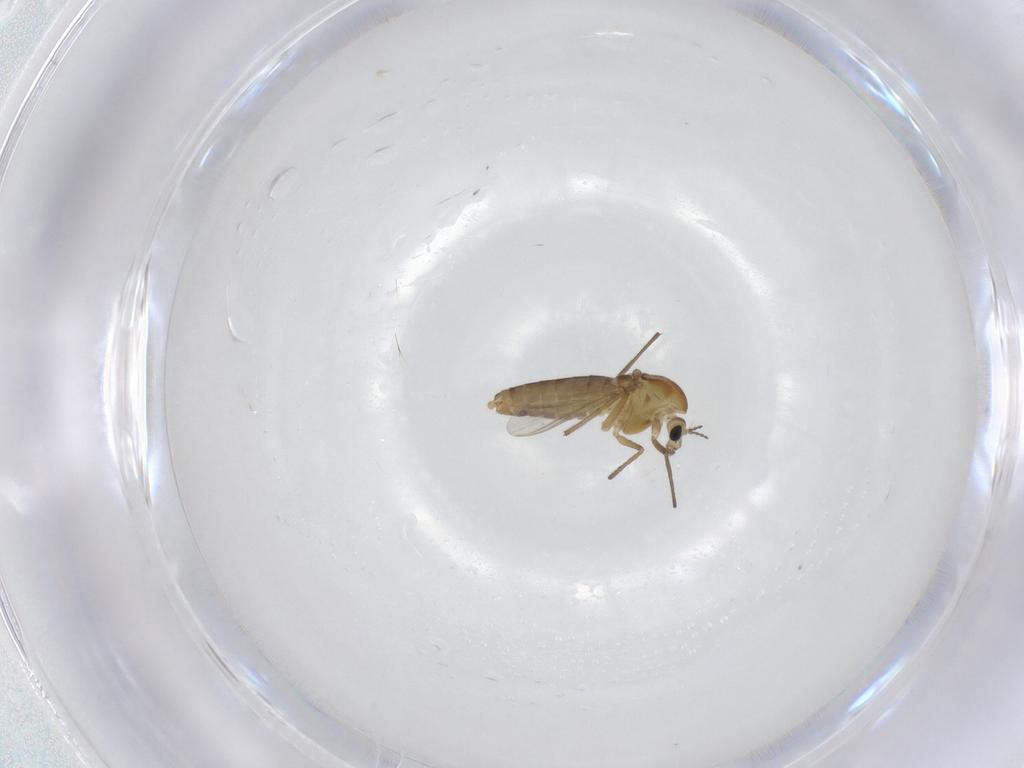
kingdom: Animalia
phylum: Arthropoda
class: Insecta
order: Diptera
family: Chironomidae
